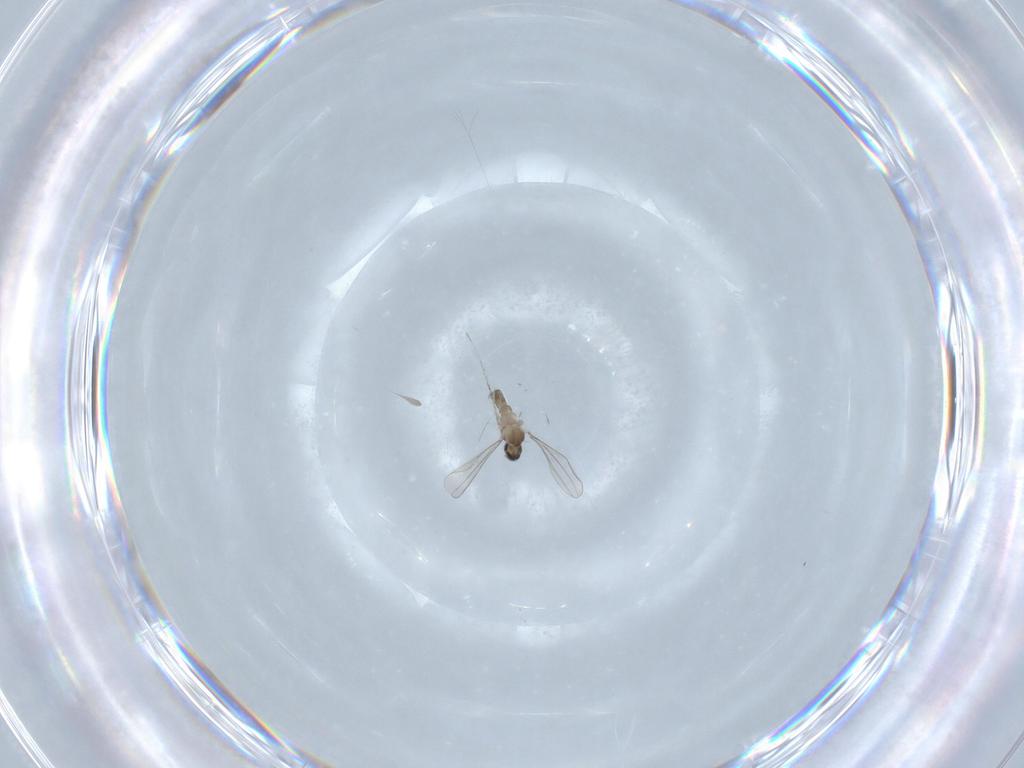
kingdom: Animalia
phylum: Arthropoda
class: Insecta
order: Diptera
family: Cecidomyiidae
